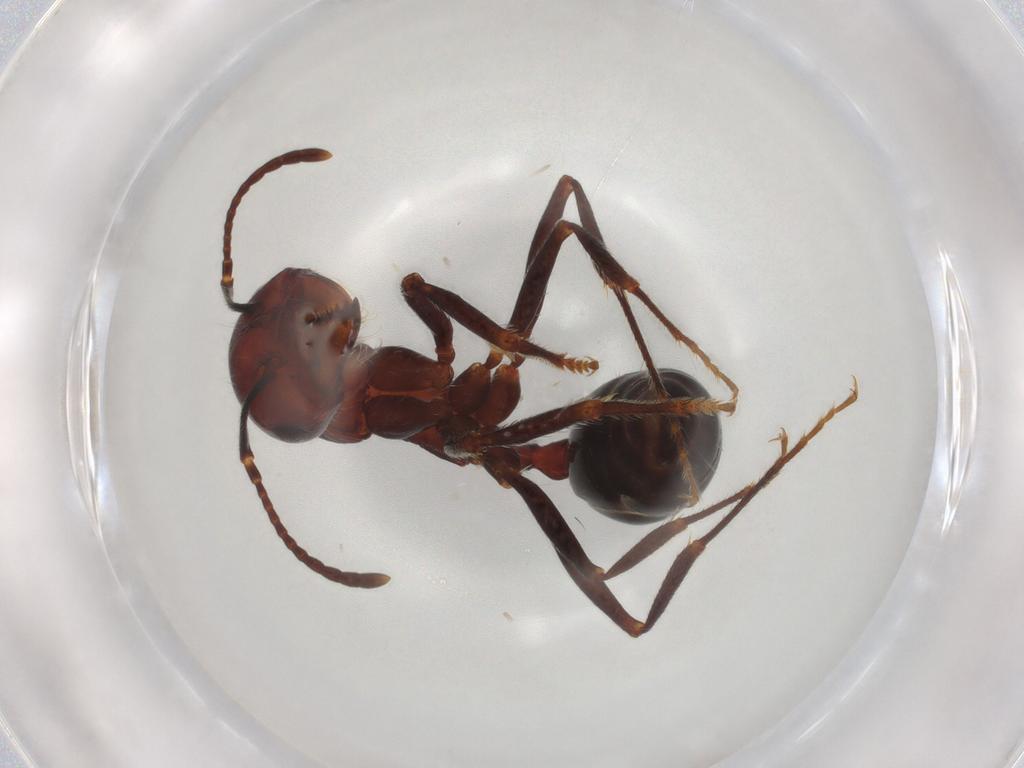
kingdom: Animalia
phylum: Arthropoda
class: Insecta
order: Hymenoptera
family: Formicidae
